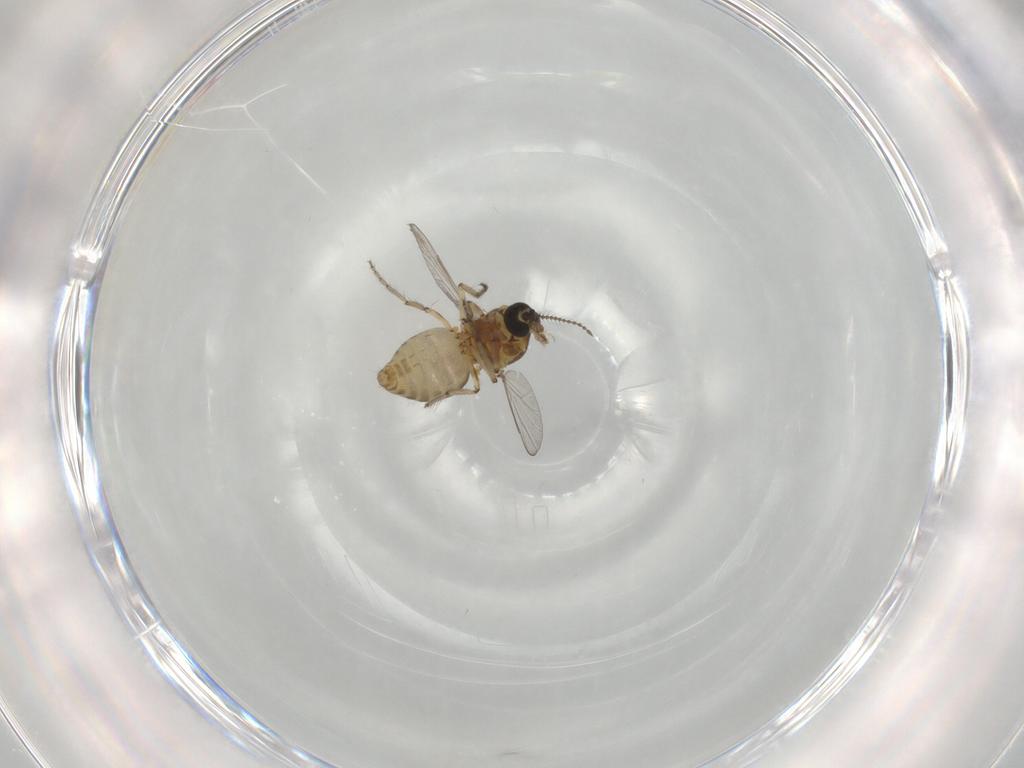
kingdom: Animalia
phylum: Arthropoda
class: Insecta
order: Diptera
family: Ceratopogonidae
